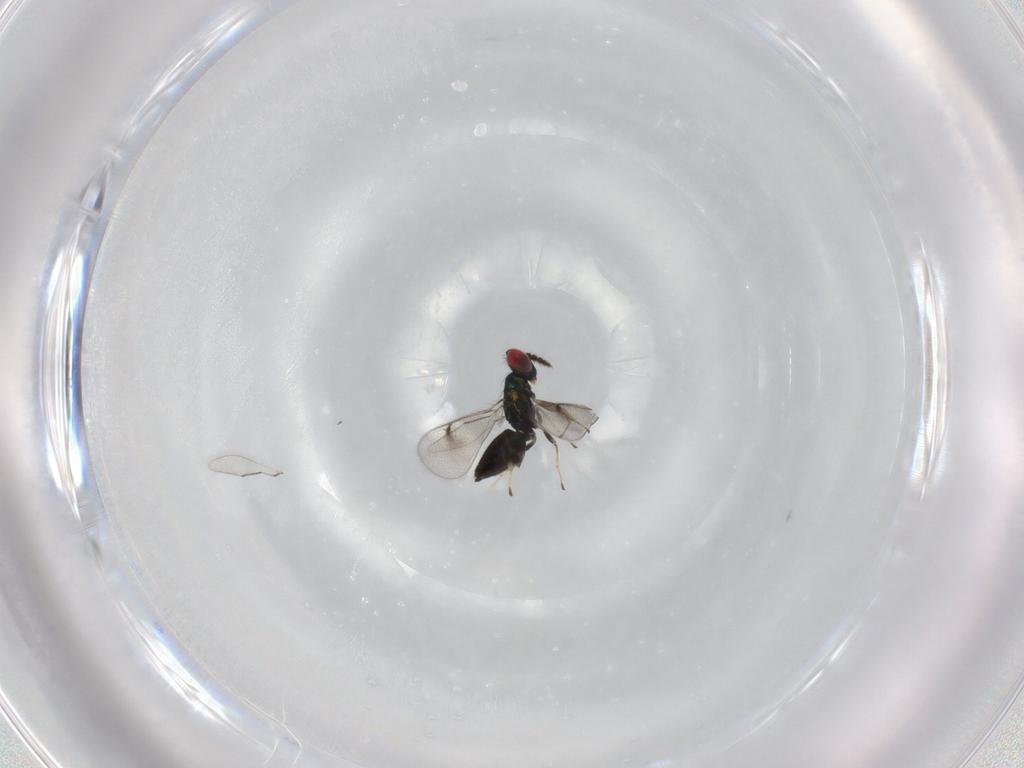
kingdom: Animalia
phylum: Arthropoda
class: Insecta
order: Hymenoptera
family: Eulophidae
